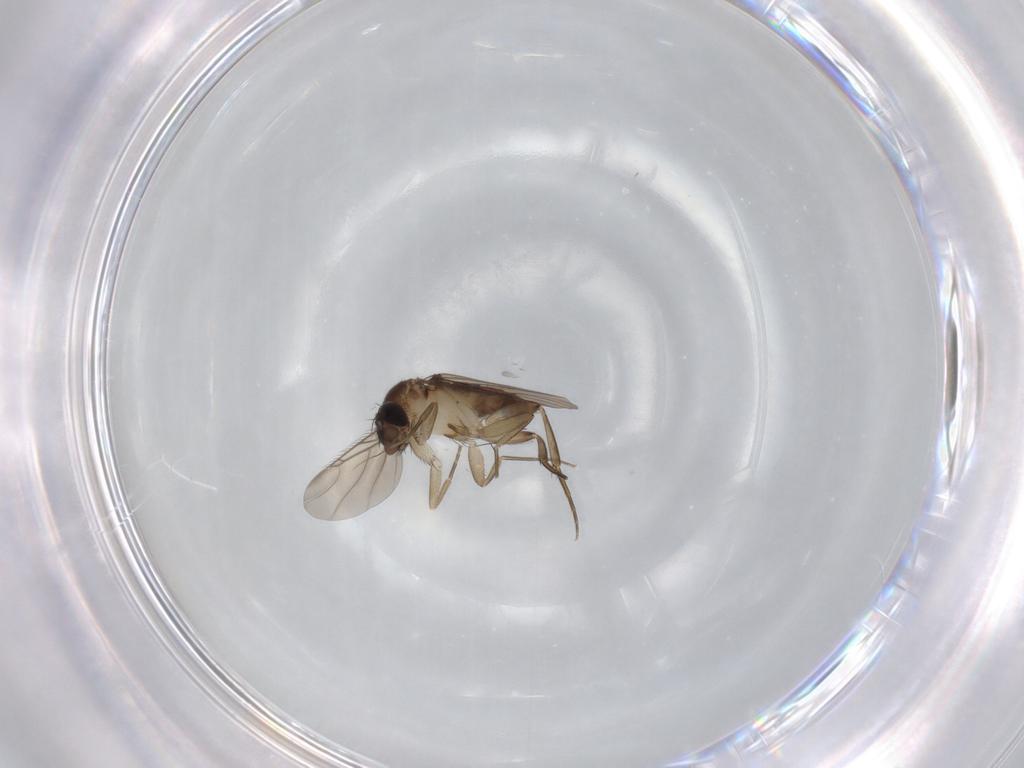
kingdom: Animalia
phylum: Arthropoda
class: Insecta
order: Diptera
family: Phoridae
